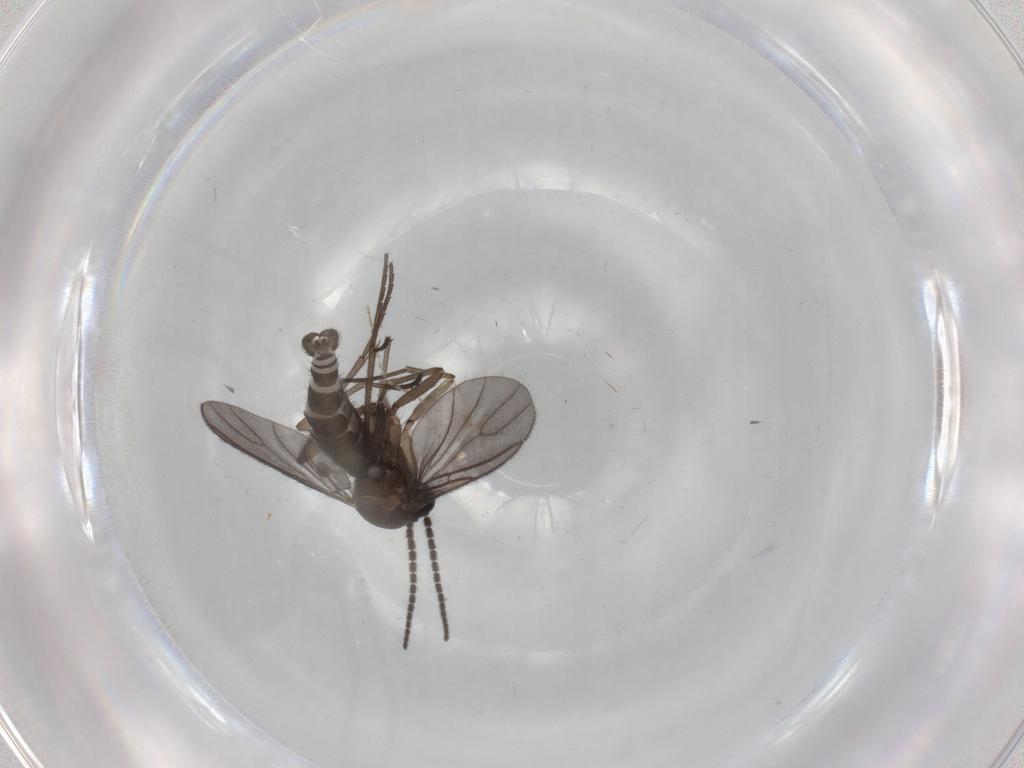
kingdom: Animalia
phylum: Arthropoda
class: Insecta
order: Diptera
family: Sciaridae
